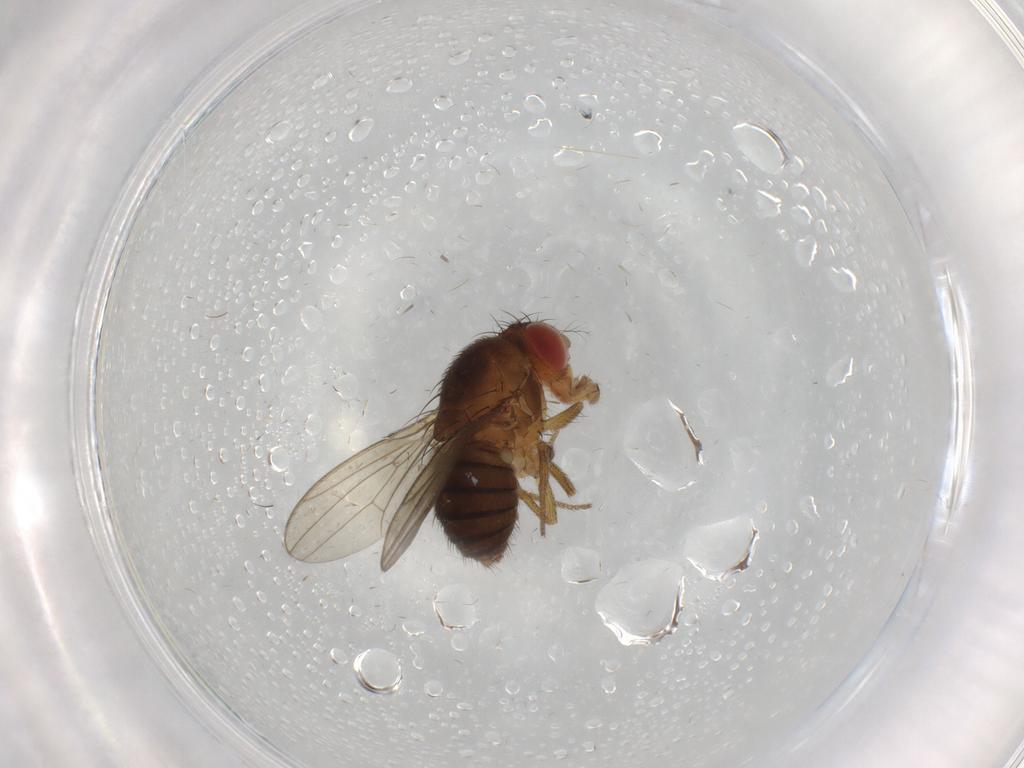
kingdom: Animalia
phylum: Arthropoda
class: Insecta
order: Diptera
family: Drosophilidae
